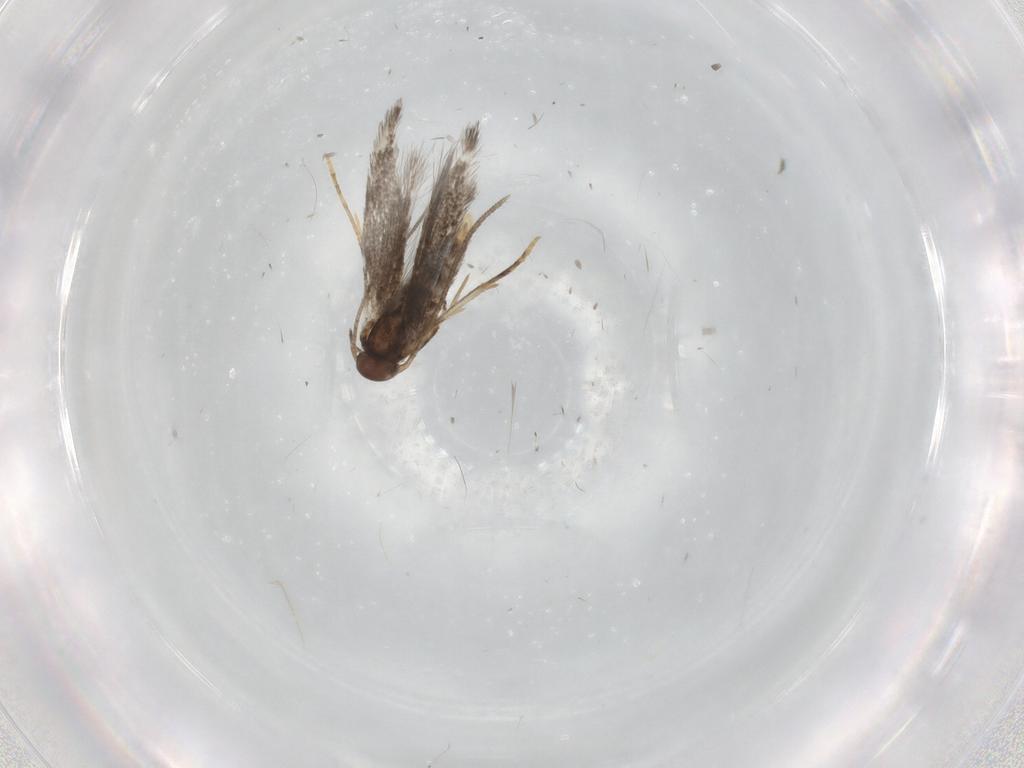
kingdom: Animalia
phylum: Arthropoda
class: Insecta
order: Lepidoptera
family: Elachistidae
